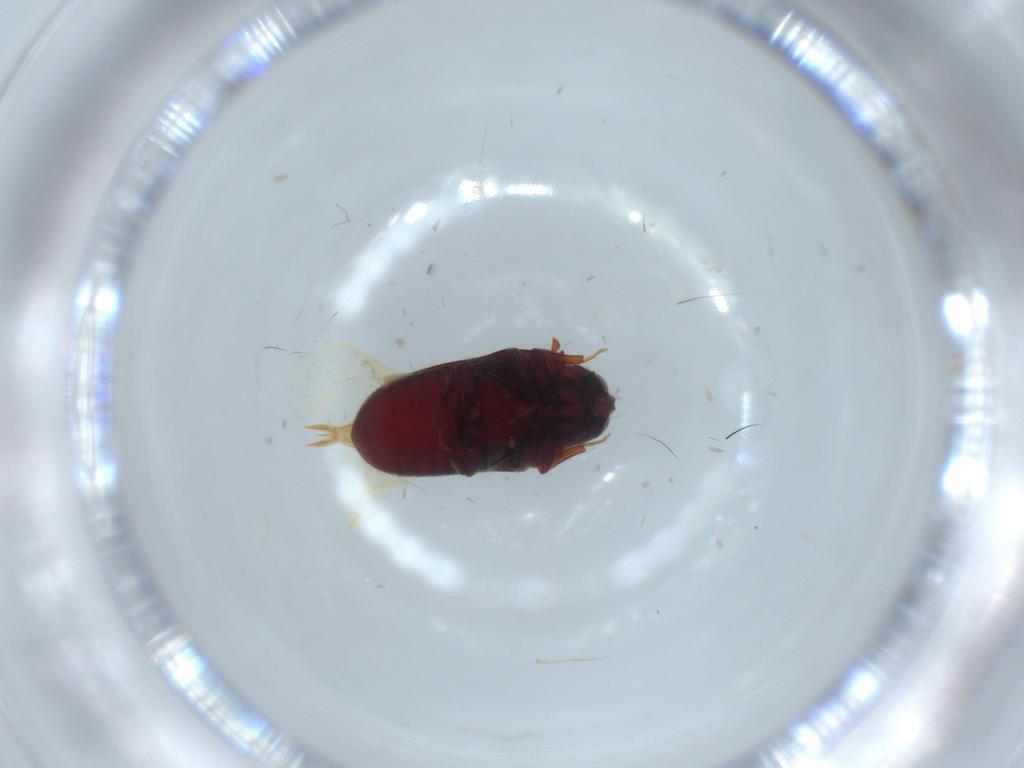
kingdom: Animalia
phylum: Arthropoda
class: Insecta
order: Coleoptera
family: Throscidae
